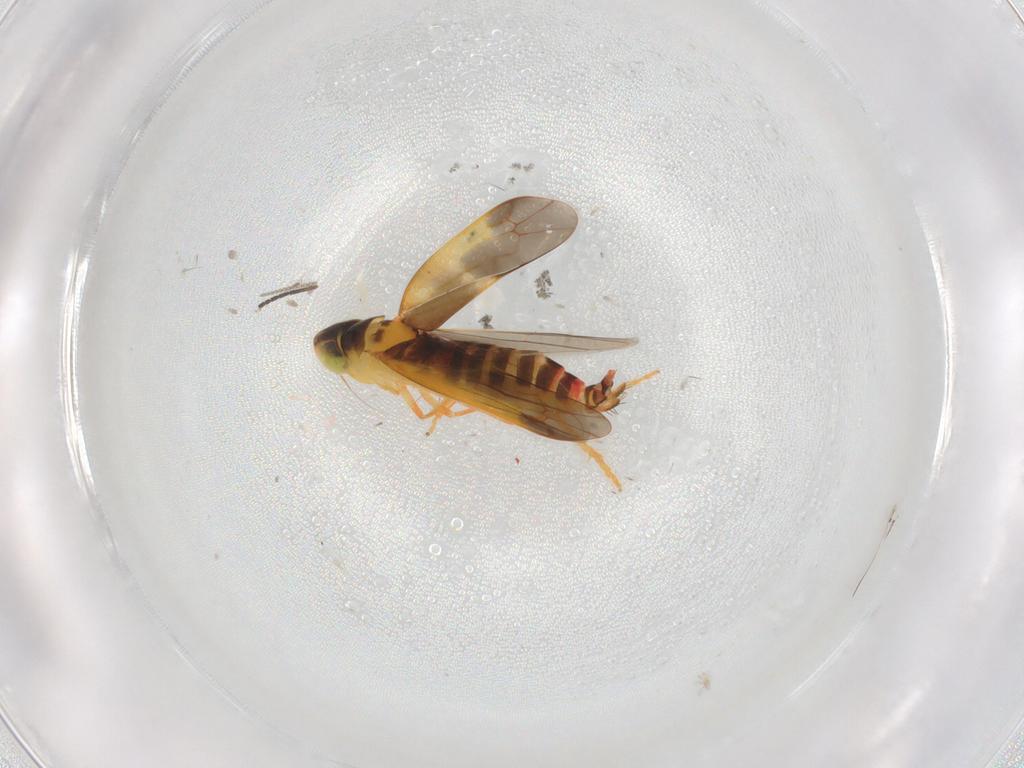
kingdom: Animalia
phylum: Arthropoda
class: Insecta
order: Hemiptera
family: Cicadellidae
